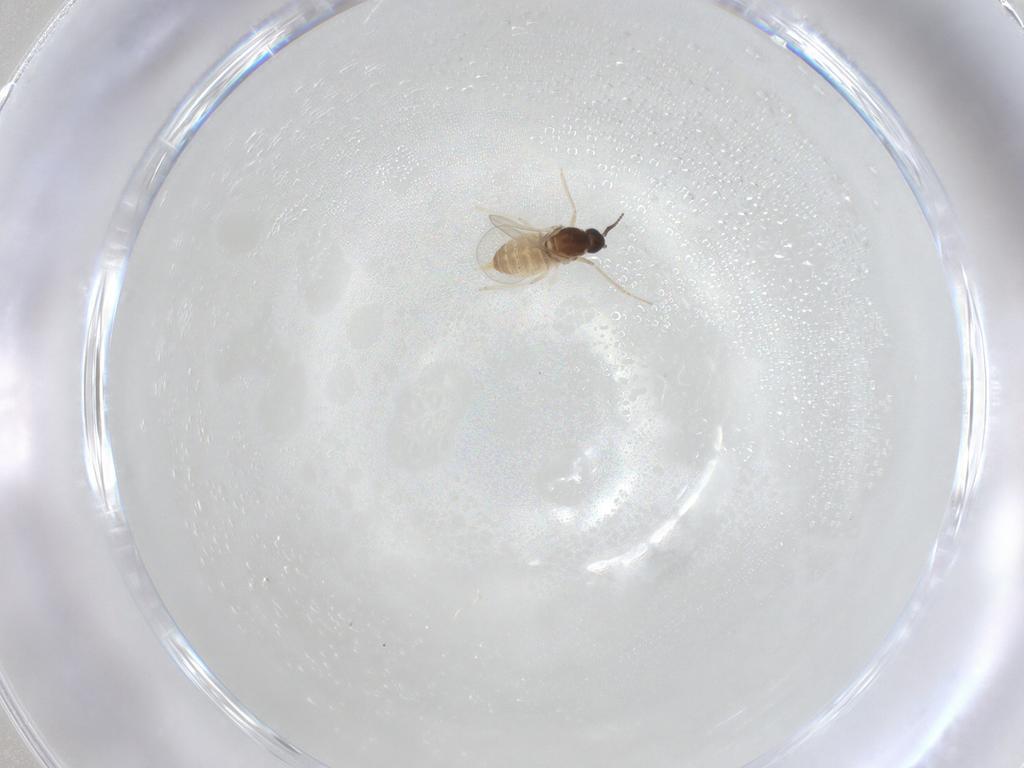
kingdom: Animalia
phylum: Arthropoda
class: Insecta
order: Diptera
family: Cecidomyiidae
